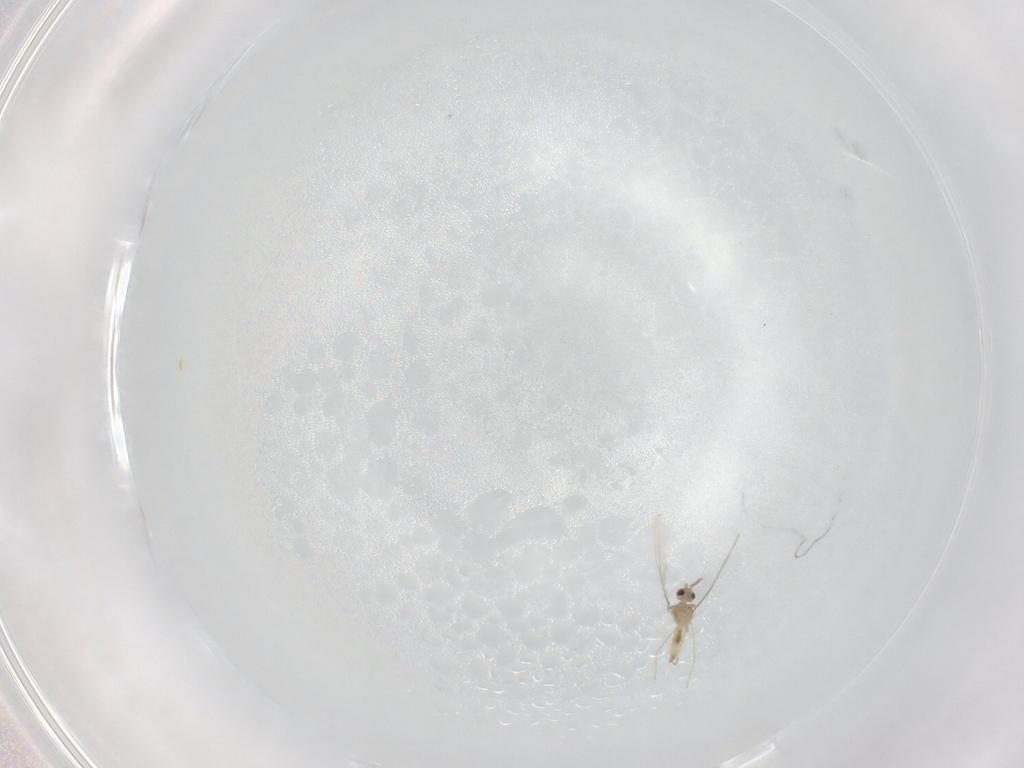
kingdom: Animalia
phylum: Arthropoda
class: Insecta
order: Diptera
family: Chloropidae
